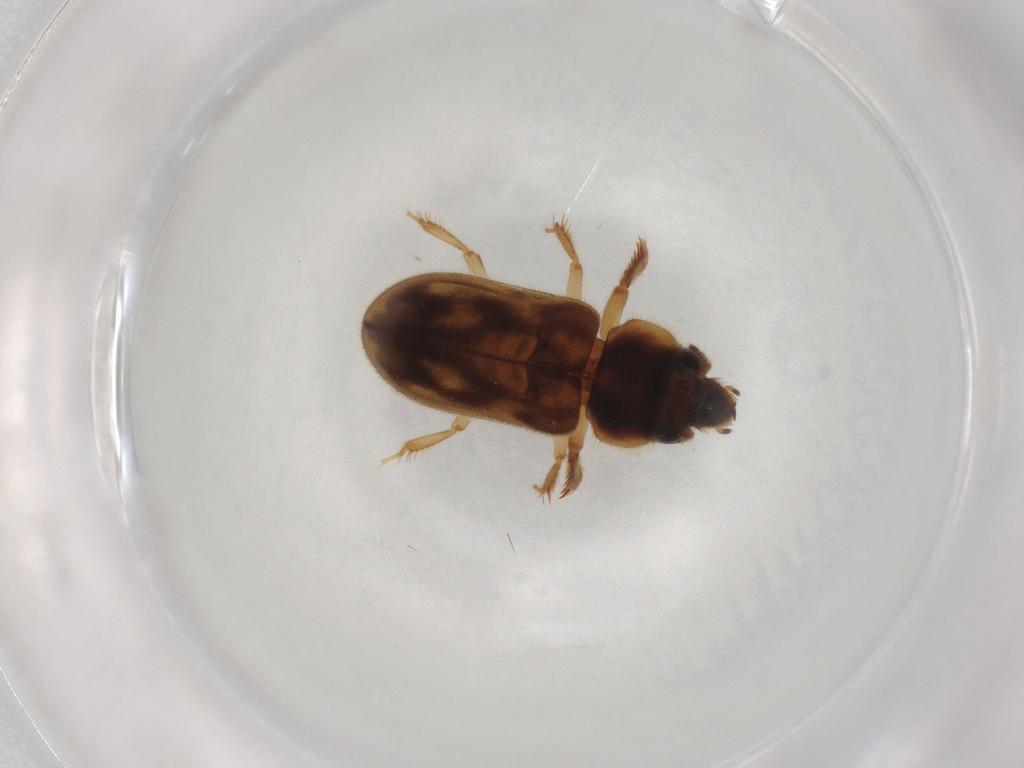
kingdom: Animalia
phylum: Arthropoda
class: Insecta
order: Coleoptera
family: Heteroceridae
